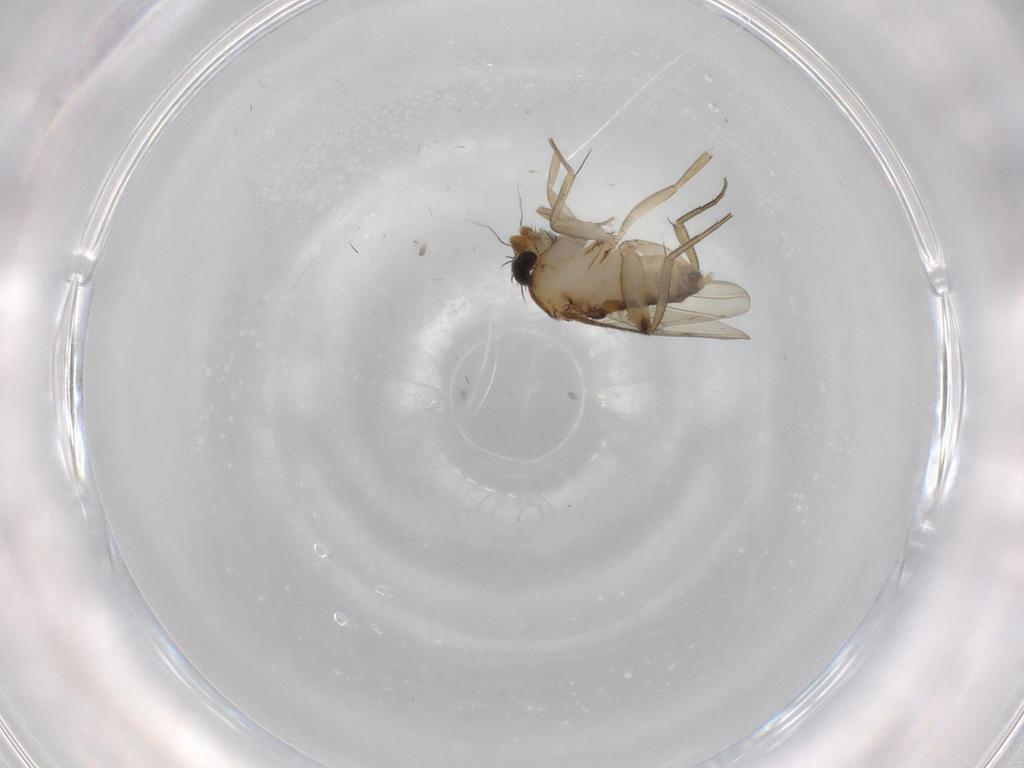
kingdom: Animalia
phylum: Arthropoda
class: Insecta
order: Diptera
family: Phoridae
